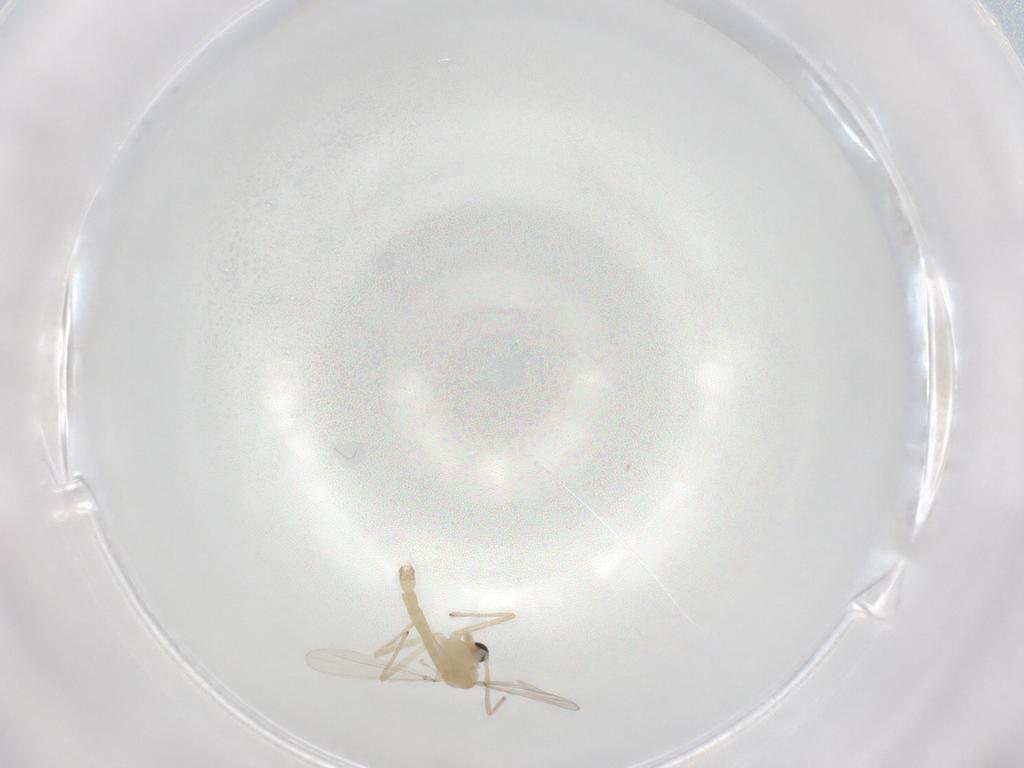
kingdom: Animalia
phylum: Arthropoda
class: Insecta
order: Diptera
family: Chironomidae
